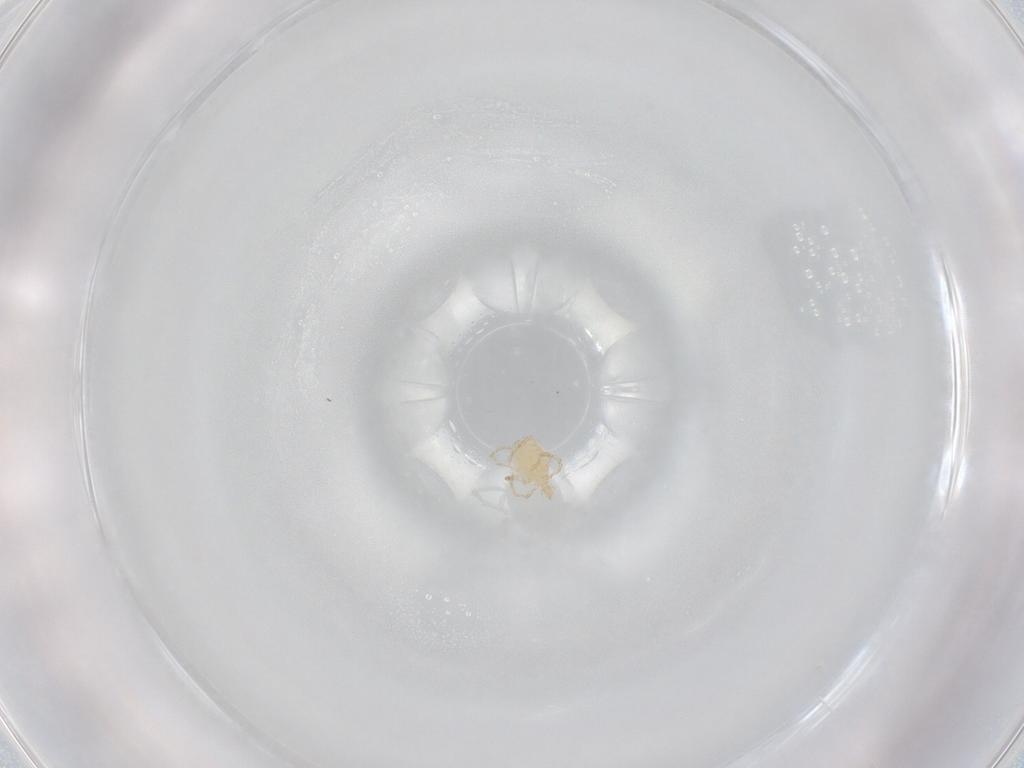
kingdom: Animalia
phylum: Arthropoda
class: Arachnida
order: Trombidiformes
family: Erythraeidae
